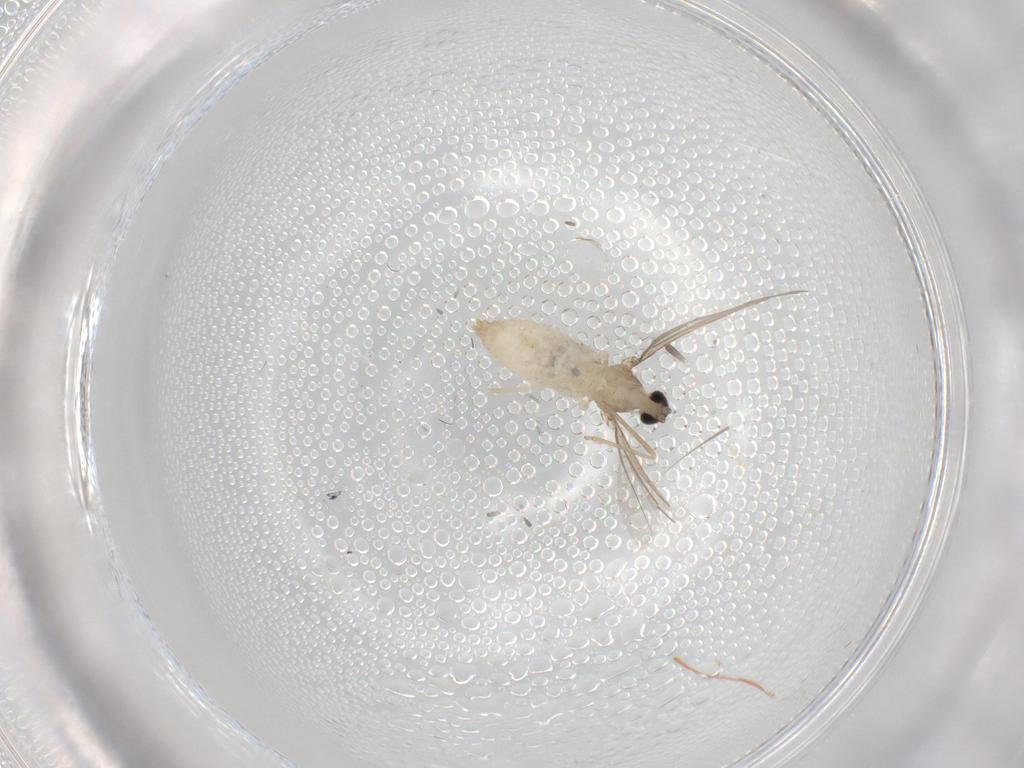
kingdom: Animalia
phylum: Arthropoda
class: Insecta
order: Diptera
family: Cecidomyiidae
